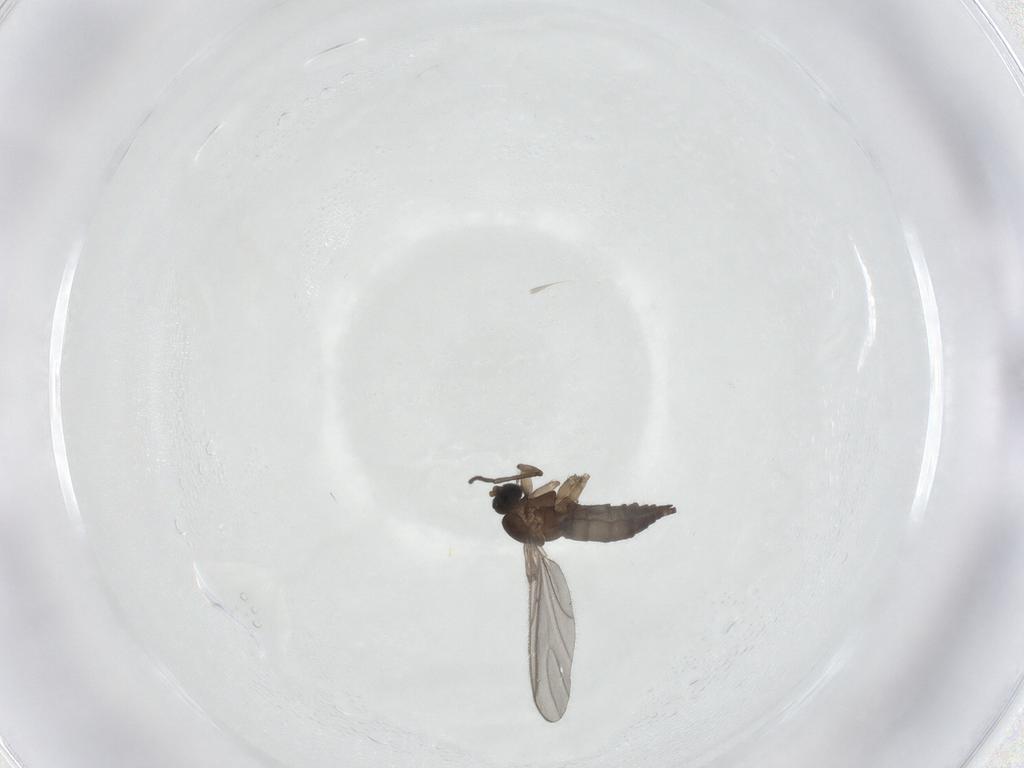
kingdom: Animalia
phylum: Arthropoda
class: Insecta
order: Diptera
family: Sciaridae
